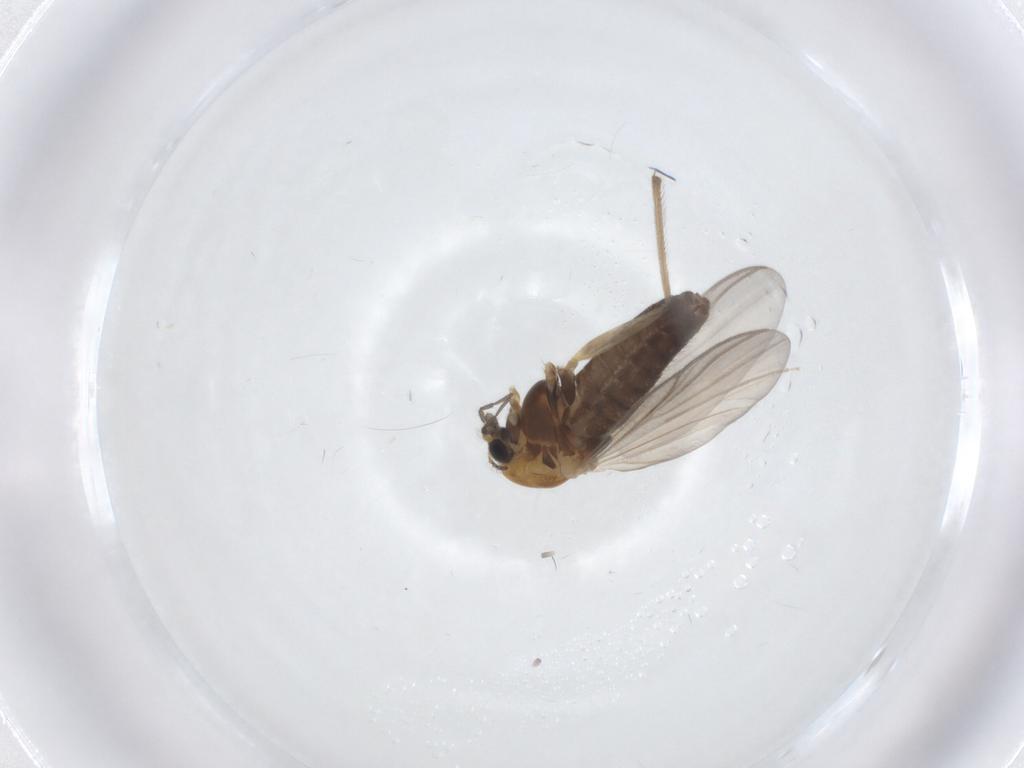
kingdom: Animalia
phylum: Arthropoda
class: Insecta
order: Diptera
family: Chironomidae
